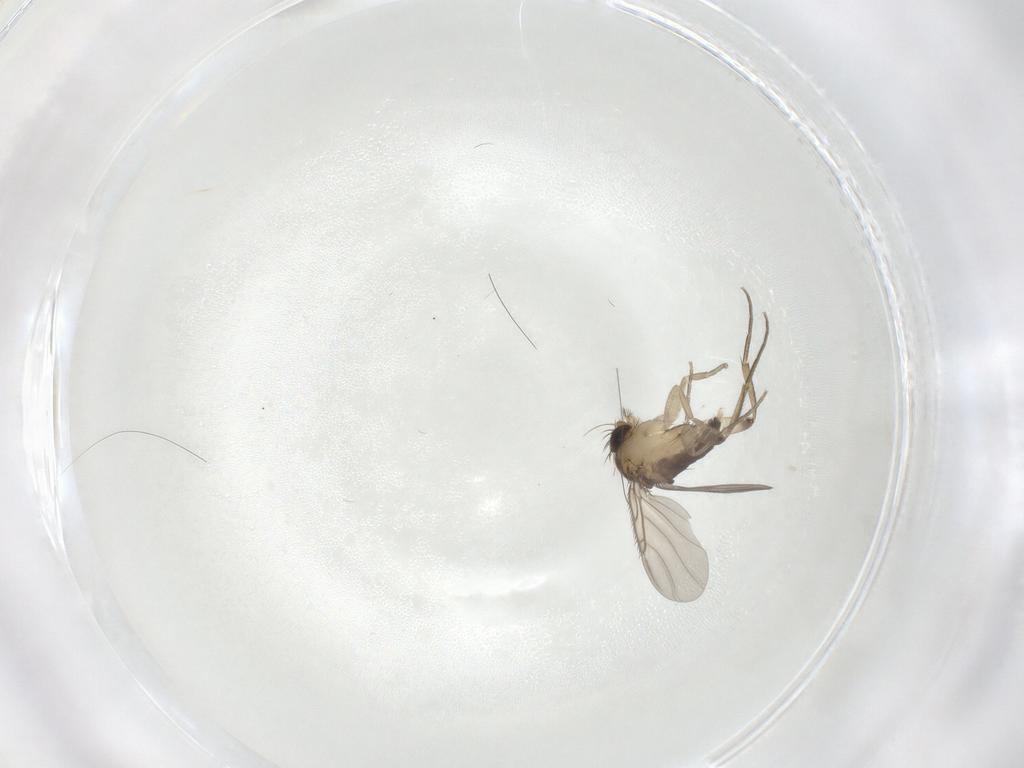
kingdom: Animalia
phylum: Arthropoda
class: Insecta
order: Diptera
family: Phoridae
